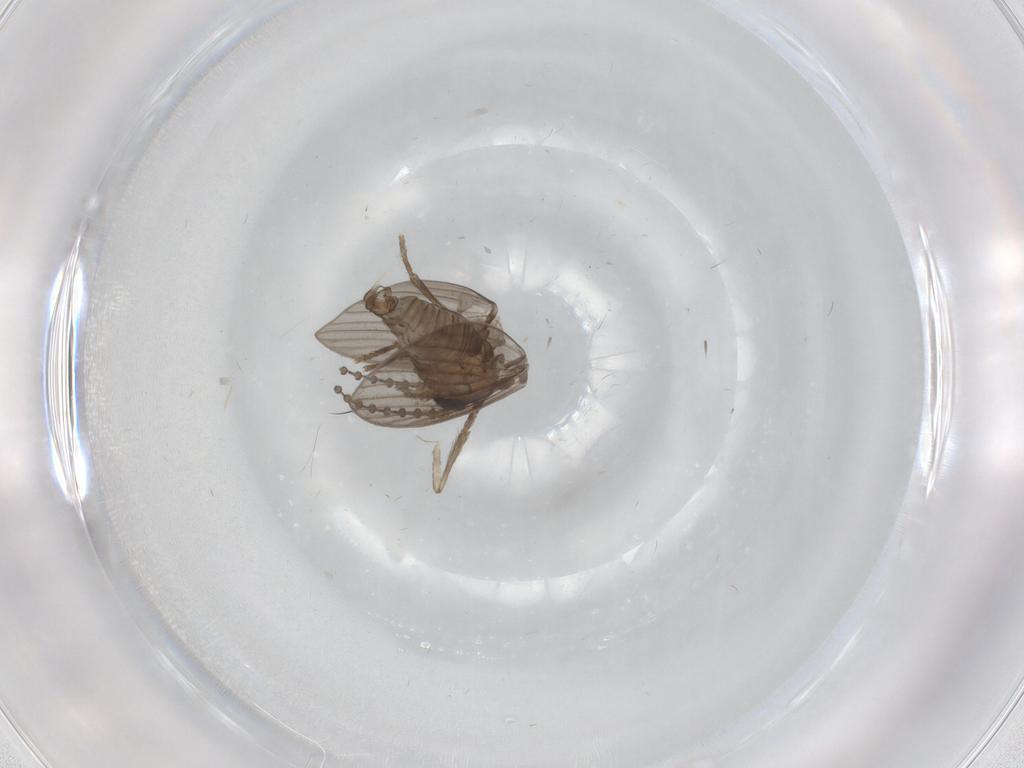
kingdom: Animalia
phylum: Arthropoda
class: Insecta
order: Diptera
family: Psychodidae
